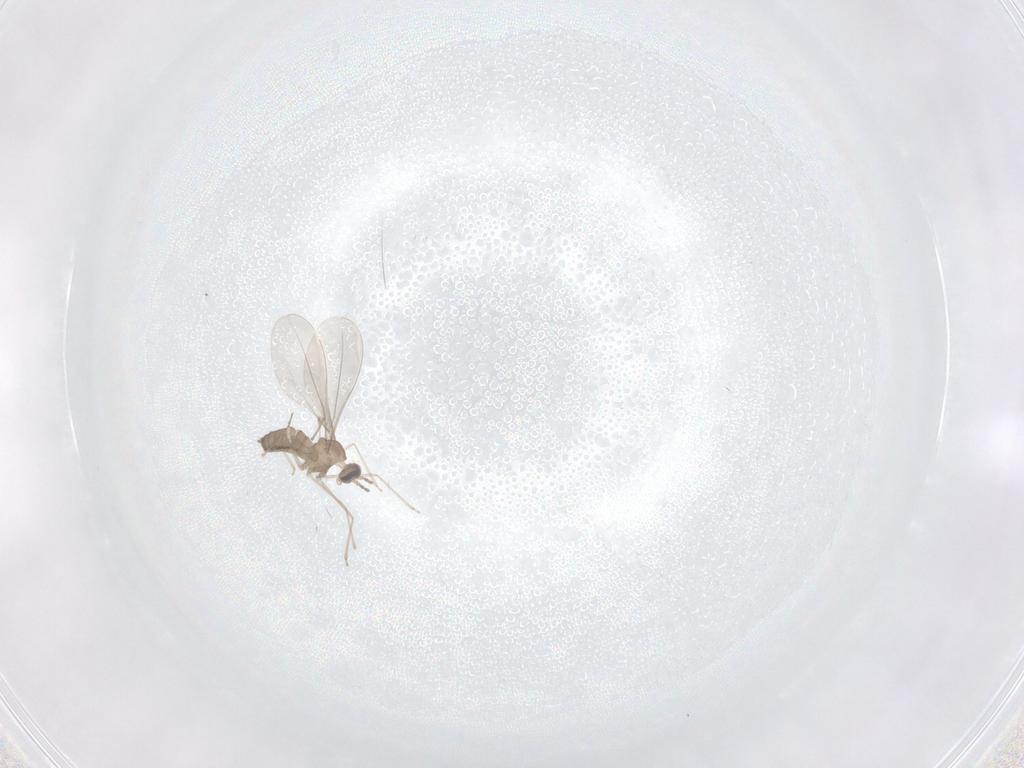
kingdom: Animalia
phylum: Arthropoda
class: Insecta
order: Diptera
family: Cecidomyiidae
